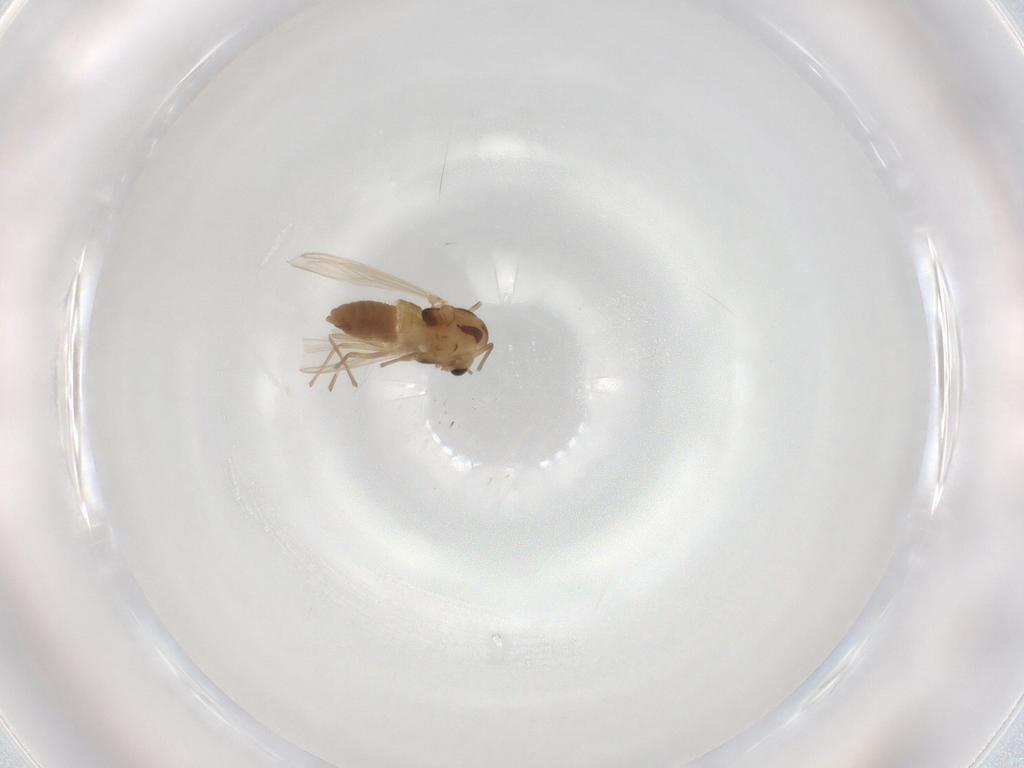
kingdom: Animalia
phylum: Arthropoda
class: Insecta
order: Diptera
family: Chironomidae
